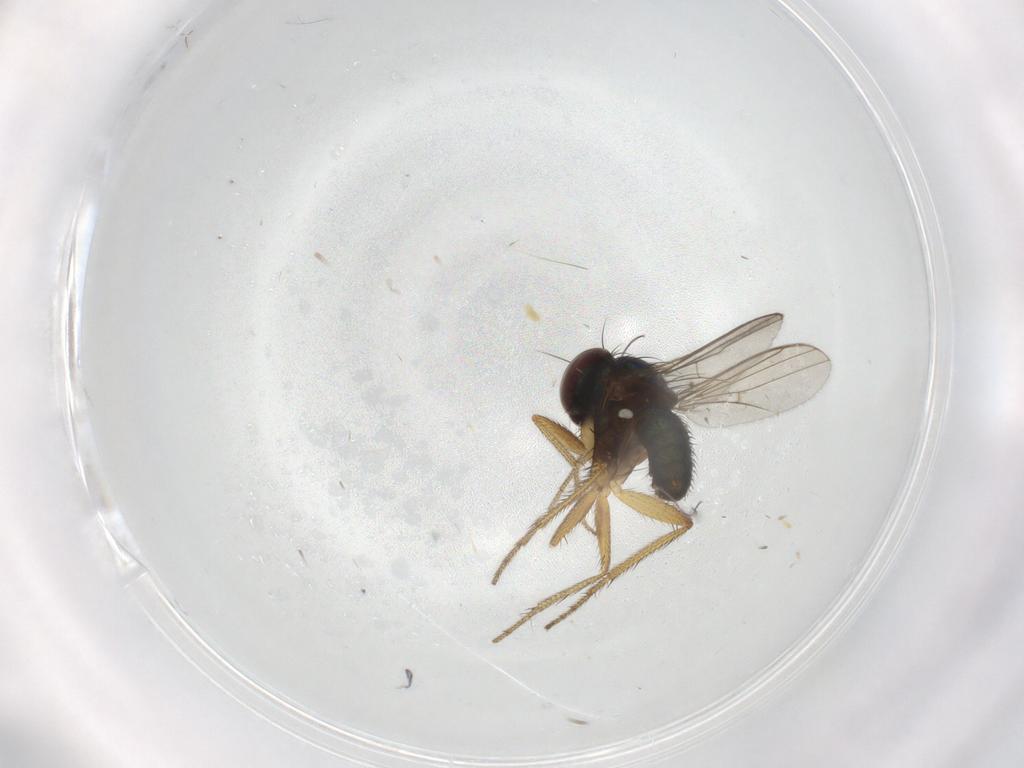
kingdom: Animalia
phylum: Arthropoda
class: Insecta
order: Diptera
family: Dolichopodidae
